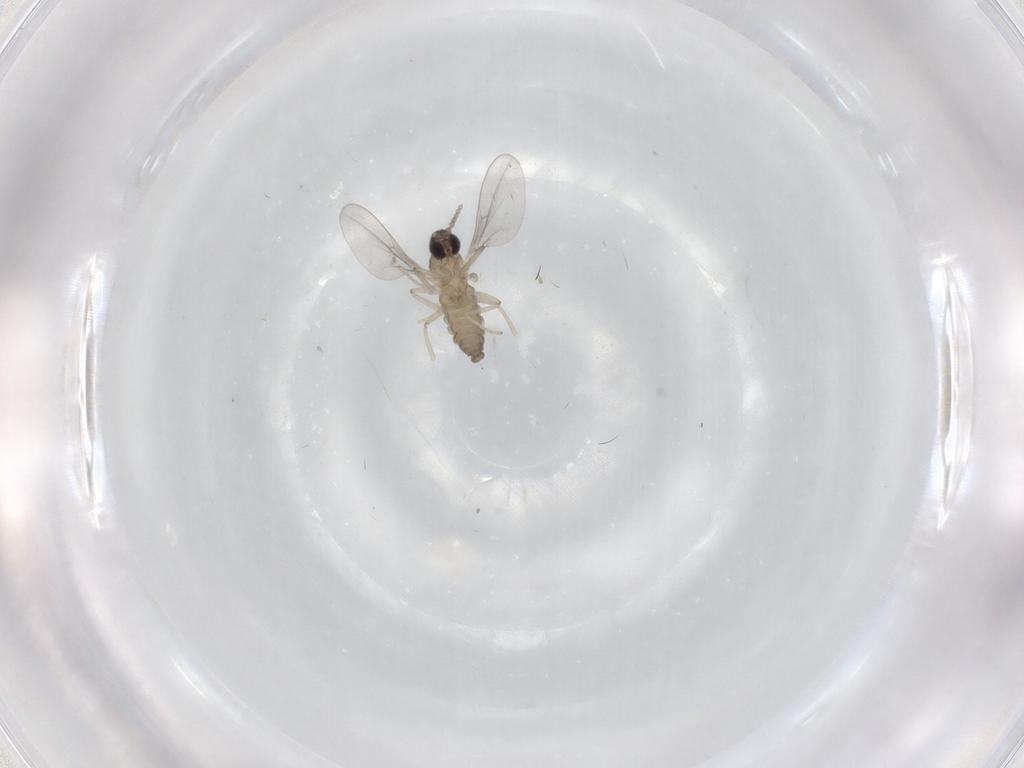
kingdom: Animalia
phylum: Arthropoda
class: Insecta
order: Diptera
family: Cecidomyiidae
